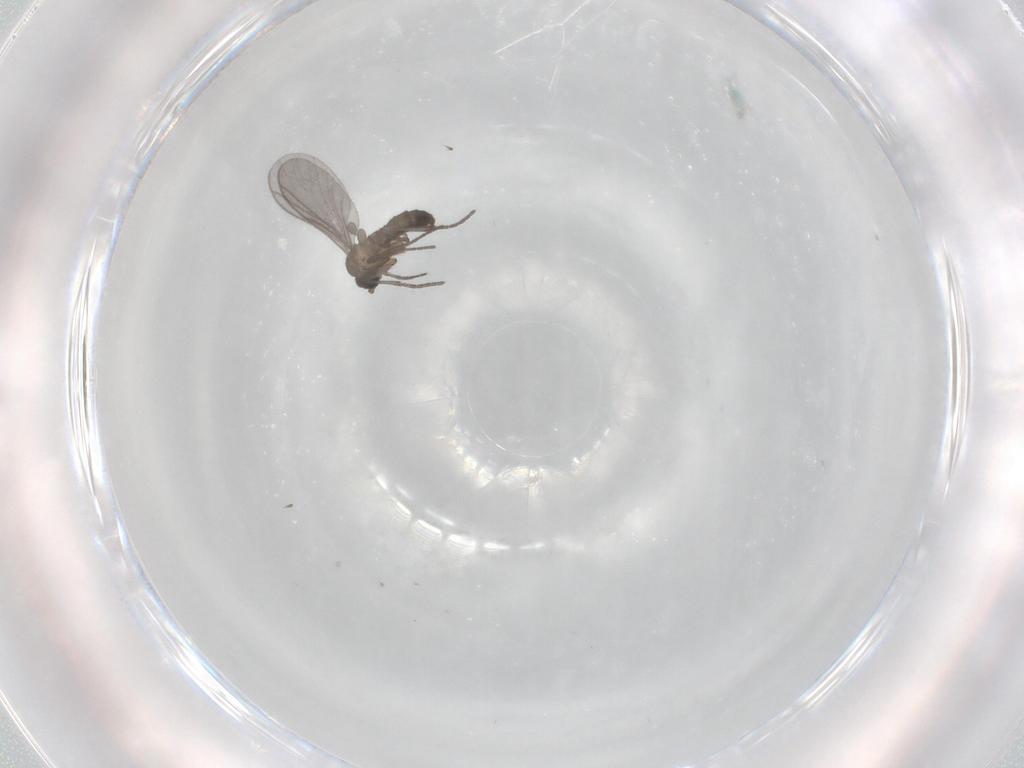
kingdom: Animalia
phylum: Arthropoda
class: Insecta
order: Diptera
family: Sciaridae
